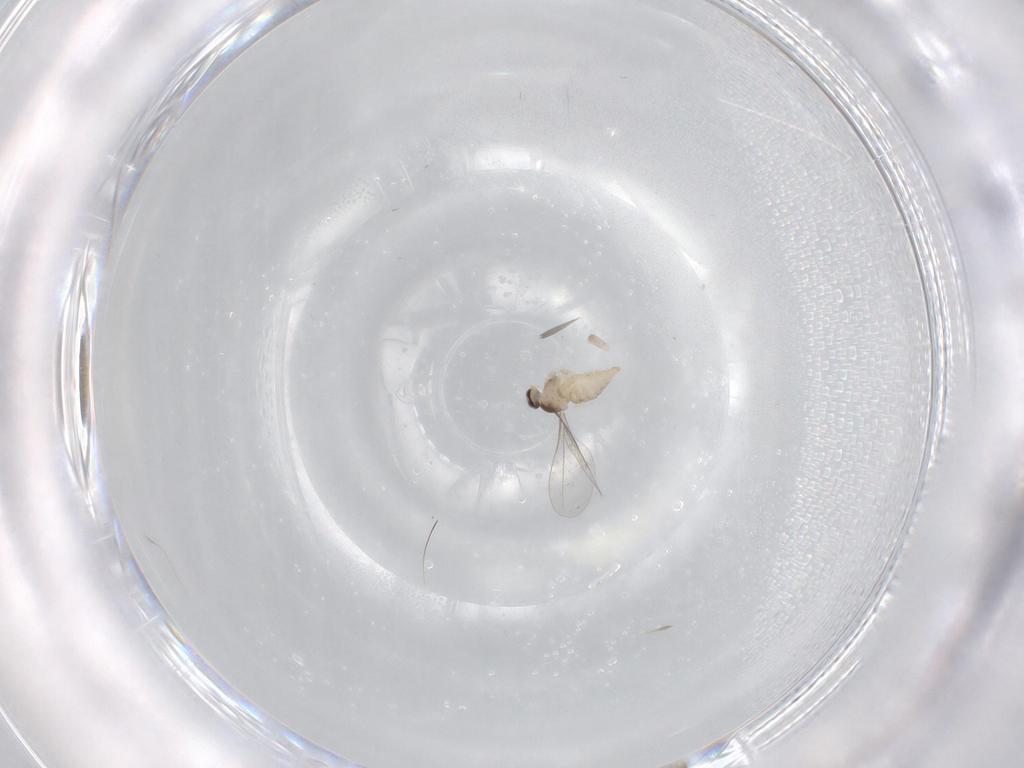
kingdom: Animalia
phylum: Arthropoda
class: Insecta
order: Diptera
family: Cecidomyiidae
